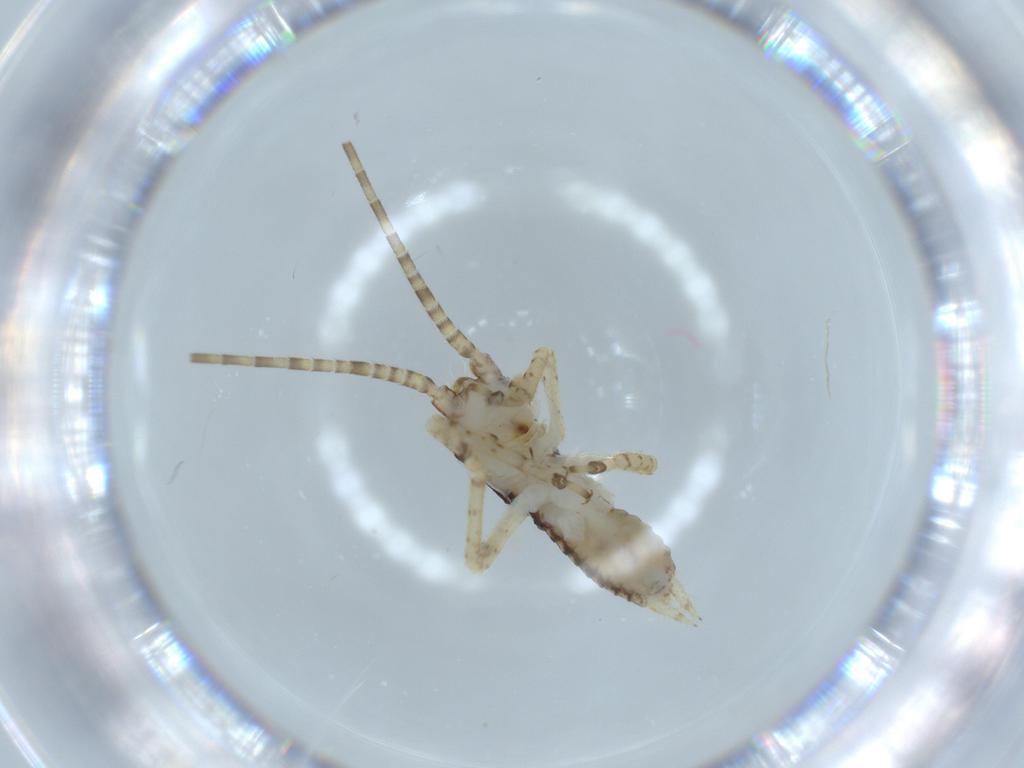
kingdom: Animalia
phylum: Arthropoda
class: Insecta
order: Orthoptera
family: Gryllidae
